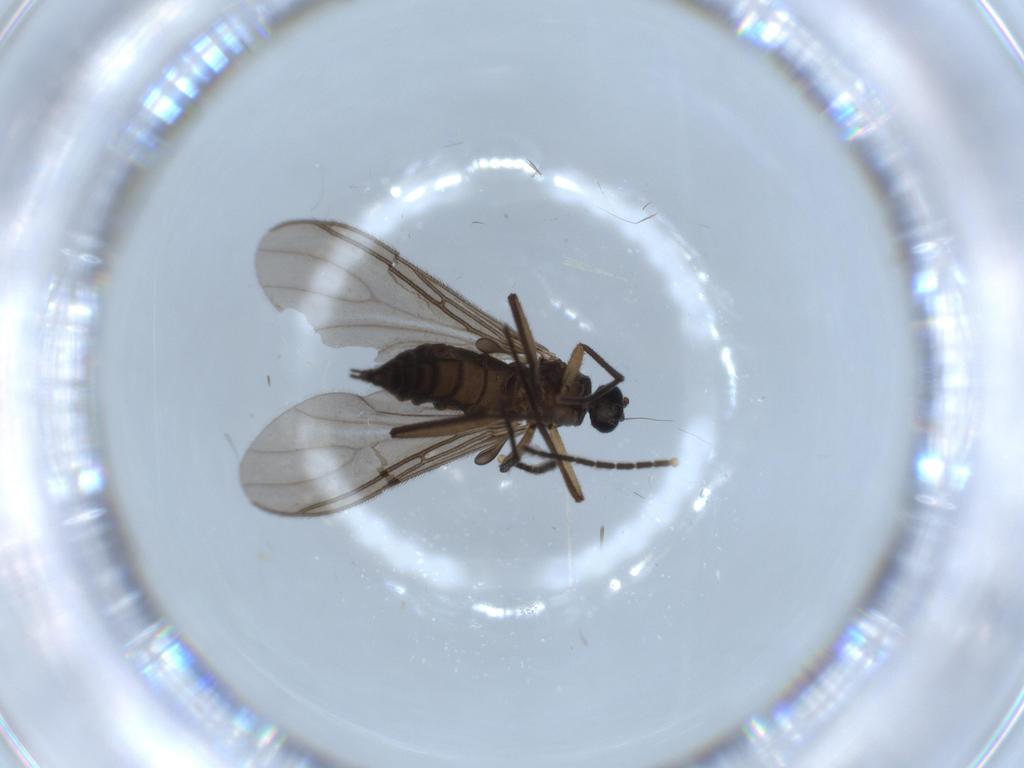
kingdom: Animalia
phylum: Arthropoda
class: Insecta
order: Diptera
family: Sciaridae
